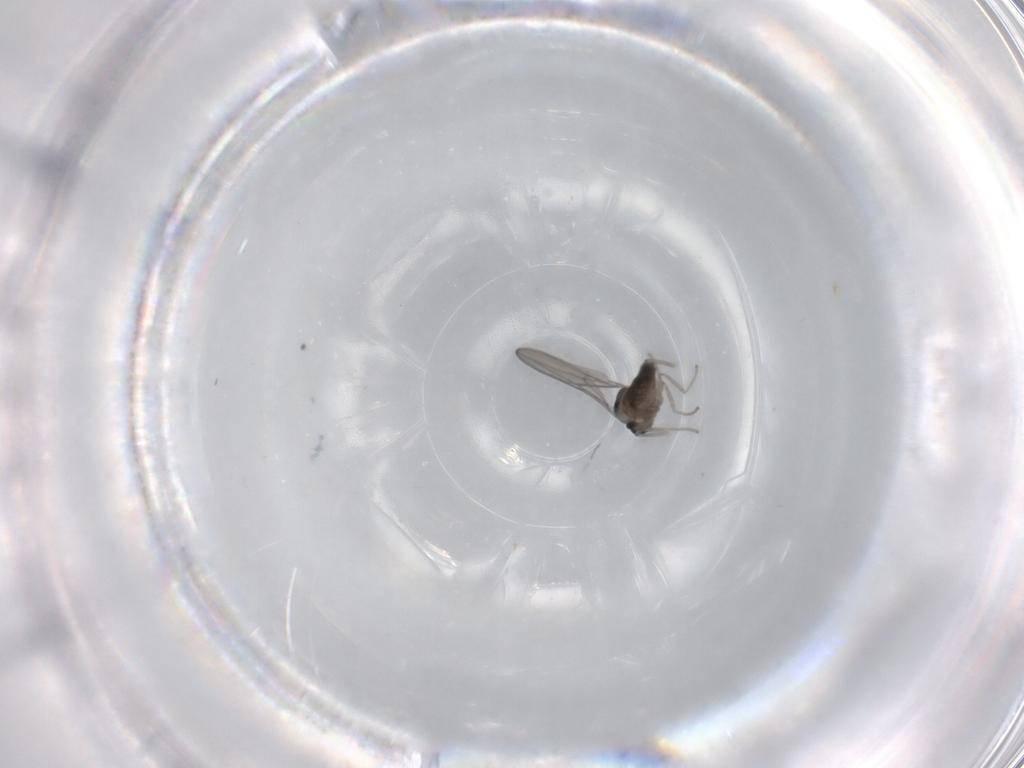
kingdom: Animalia
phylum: Arthropoda
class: Insecta
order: Diptera
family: Cecidomyiidae
